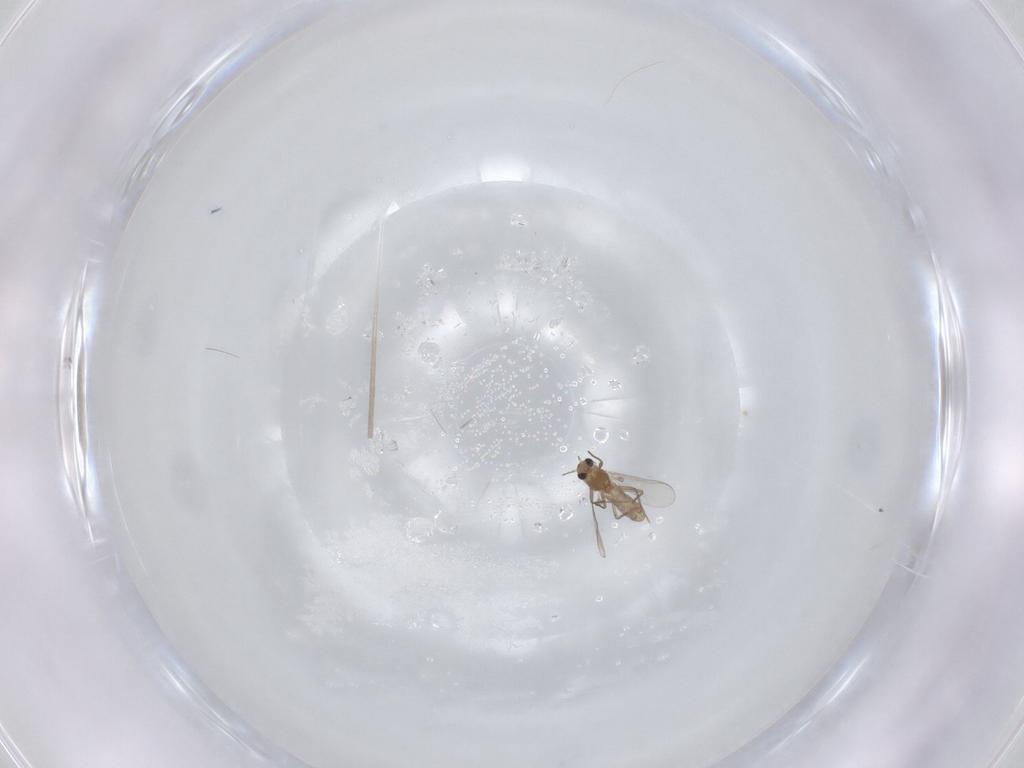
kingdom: Animalia
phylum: Arthropoda
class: Insecta
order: Diptera
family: Chironomidae
